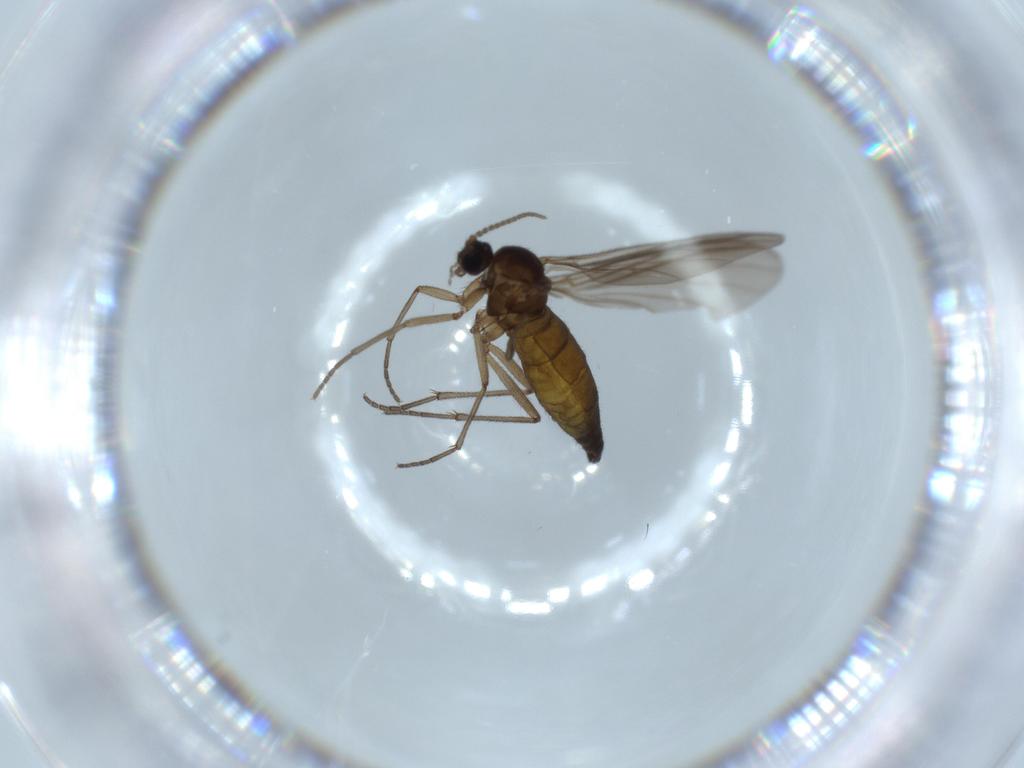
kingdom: Animalia
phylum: Arthropoda
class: Insecta
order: Diptera
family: Sciaridae
